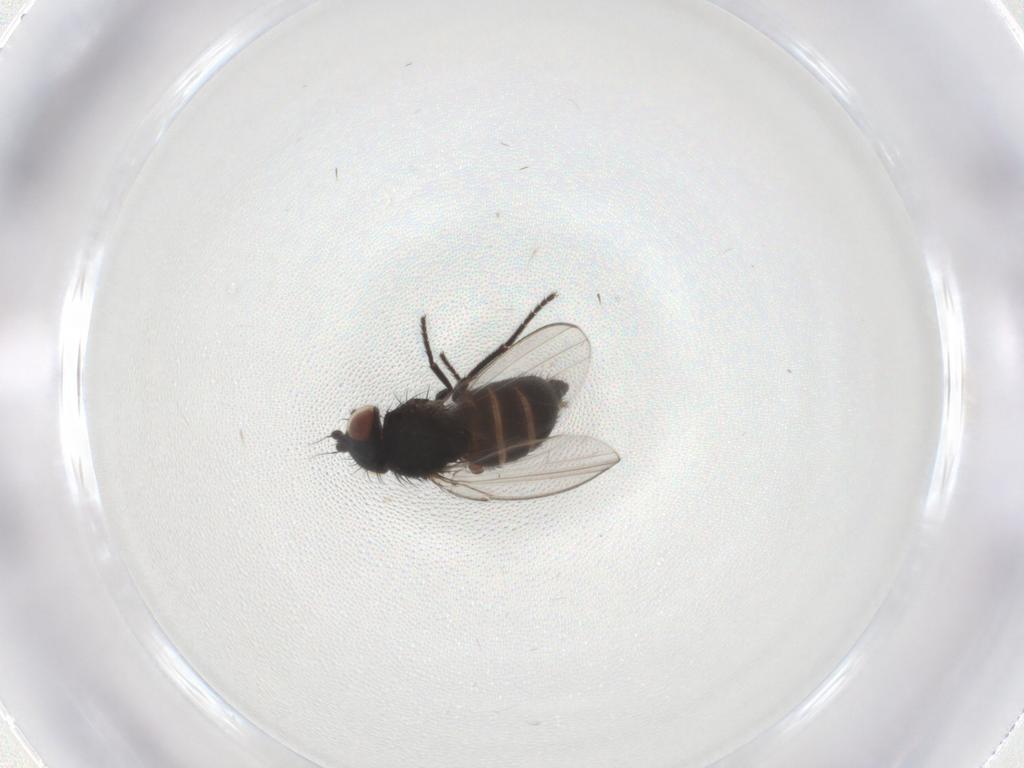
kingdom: Animalia
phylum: Arthropoda
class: Insecta
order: Diptera
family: Milichiidae
